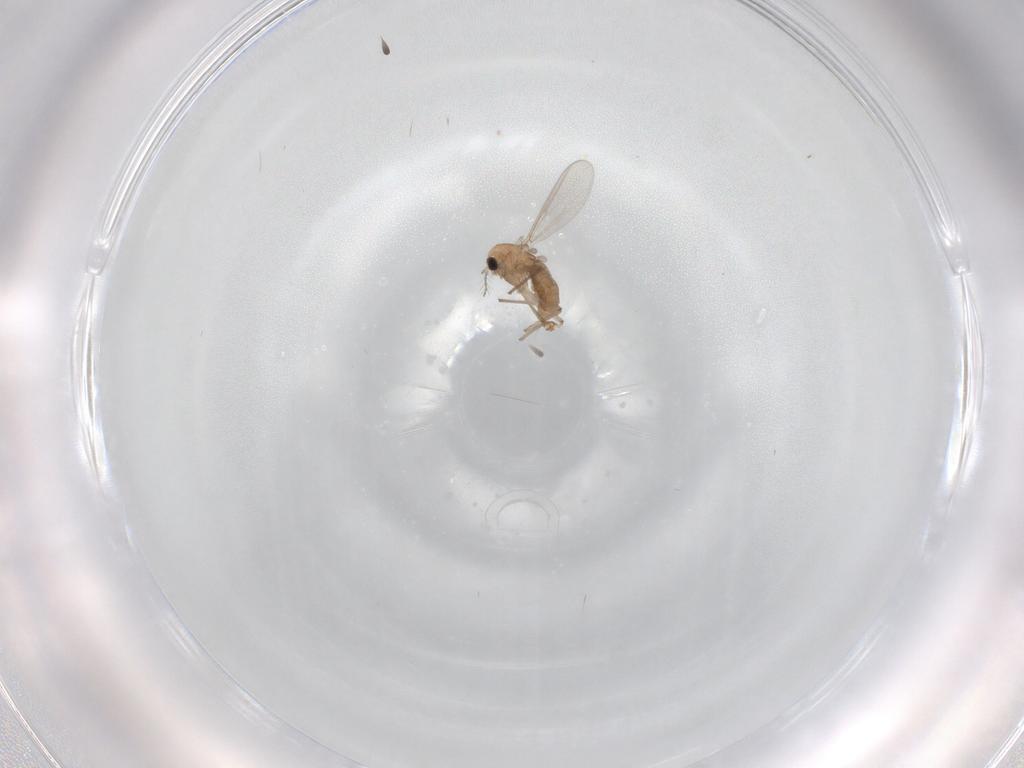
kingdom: Animalia
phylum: Arthropoda
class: Insecta
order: Diptera
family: Chironomidae
